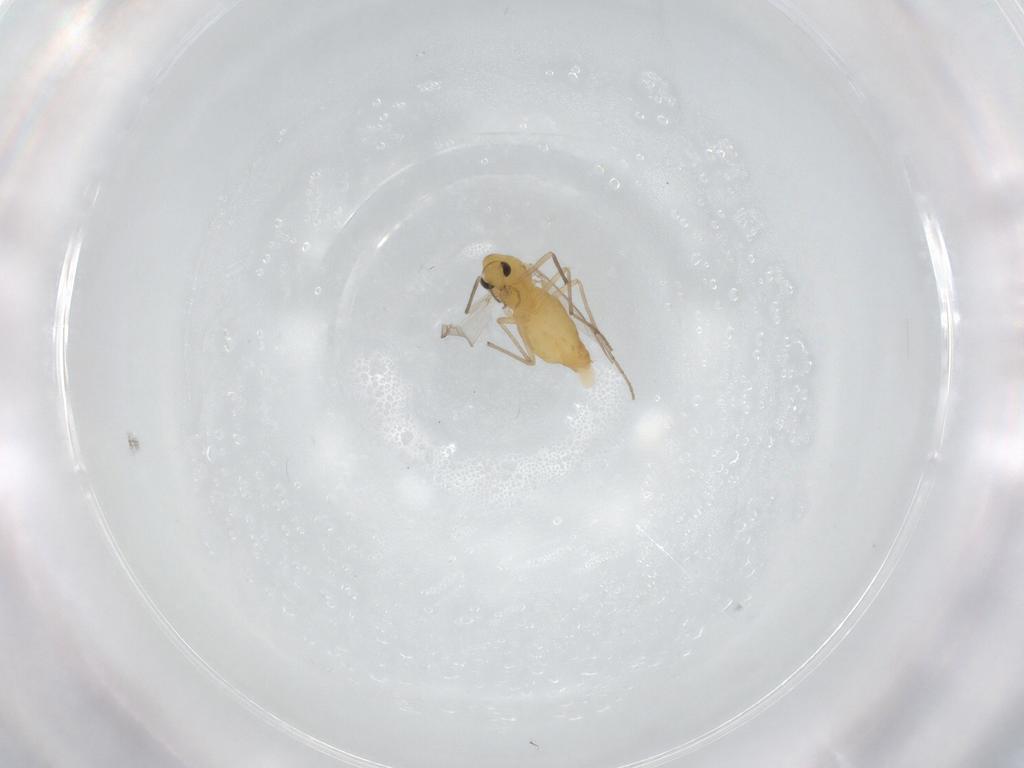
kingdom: Animalia
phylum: Arthropoda
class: Insecta
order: Diptera
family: Chironomidae
